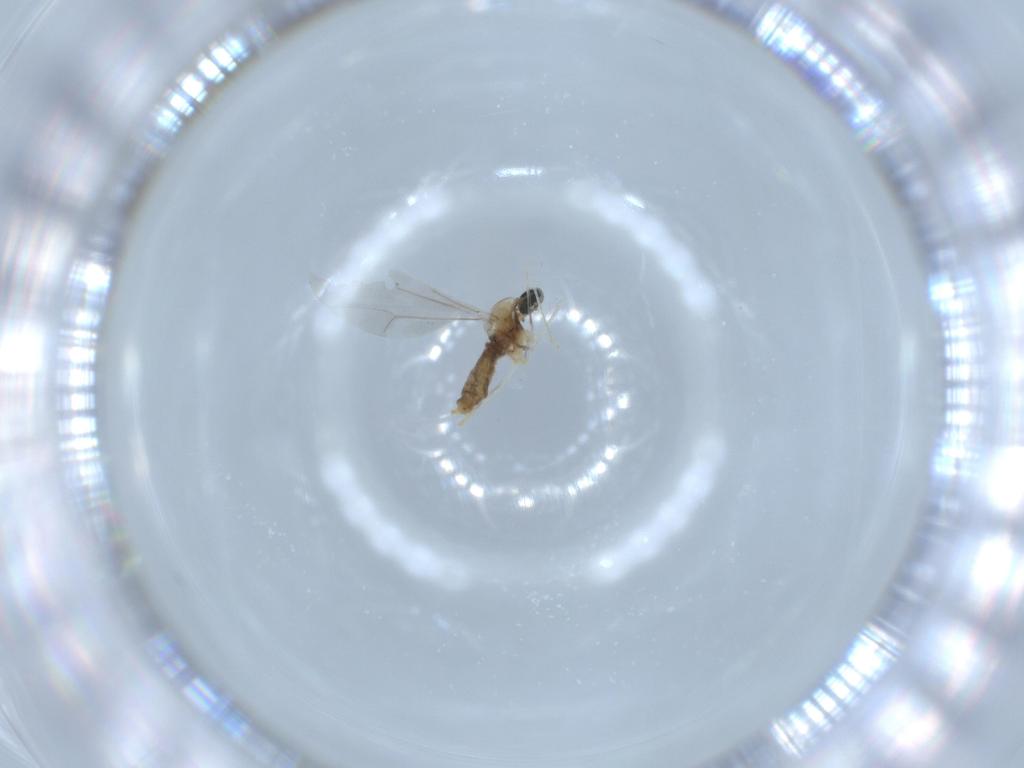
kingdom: Animalia
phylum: Arthropoda
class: Insecta
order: Diptera
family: Cecidomyiidae
